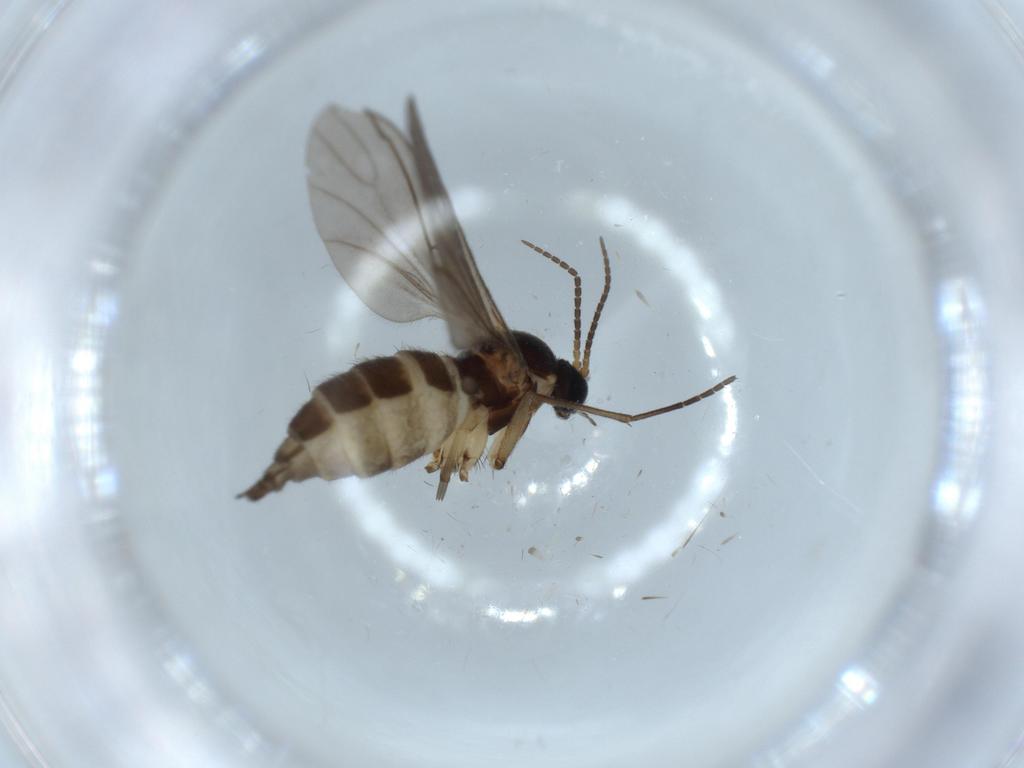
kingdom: Animalia
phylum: Arthropoda
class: Insecta
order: Diptera
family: Sciaridae
